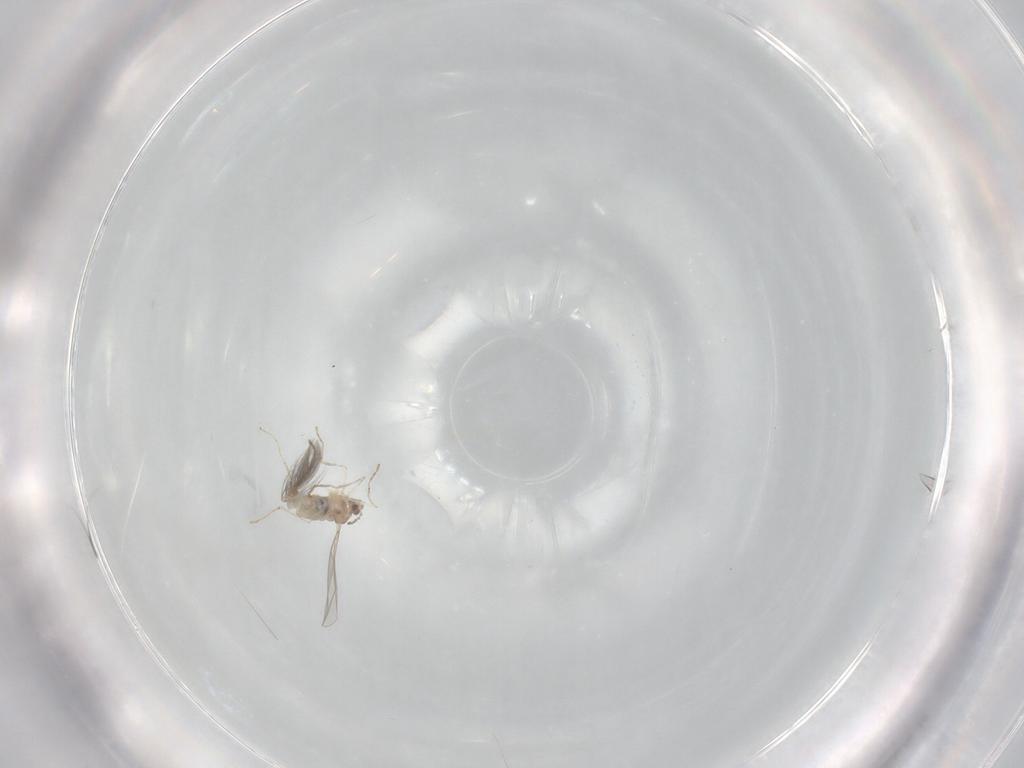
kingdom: Animalia
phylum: Arthropoda
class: Insecta
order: Diptera
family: Cecidomyiidae
